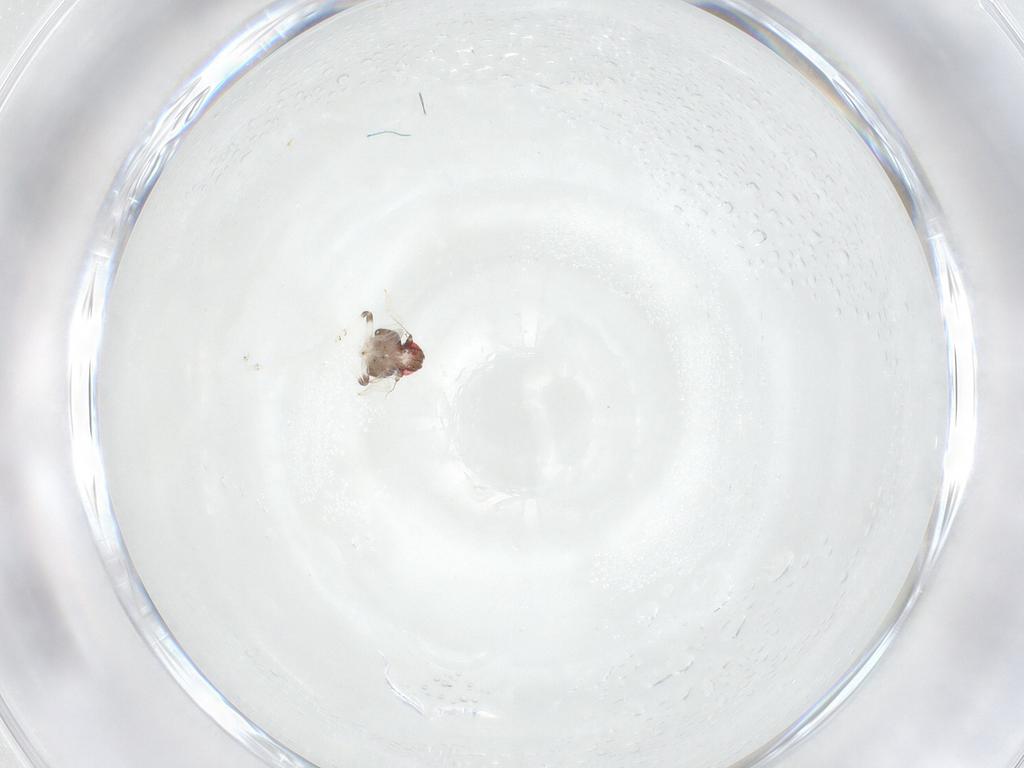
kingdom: Animalia
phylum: Arthropoda
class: Insecta
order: Hemiptera
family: Nogodinidae
